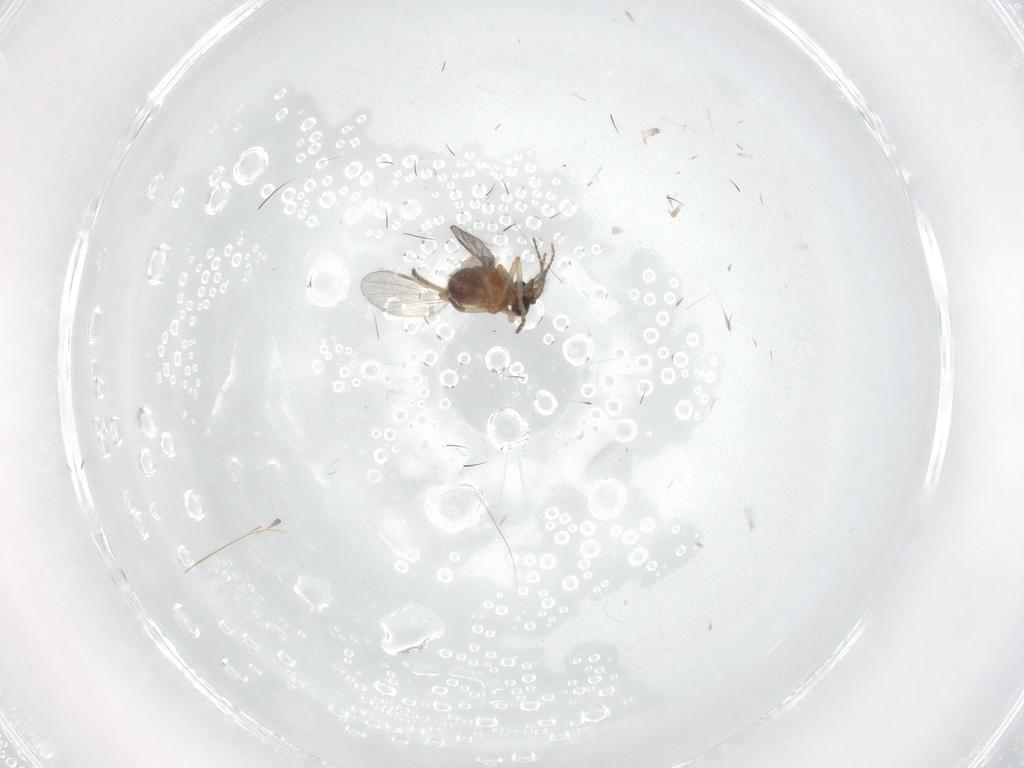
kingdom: Animalia
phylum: Arthropoda
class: Insecta
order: Diptera
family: Ceratopogonidae
